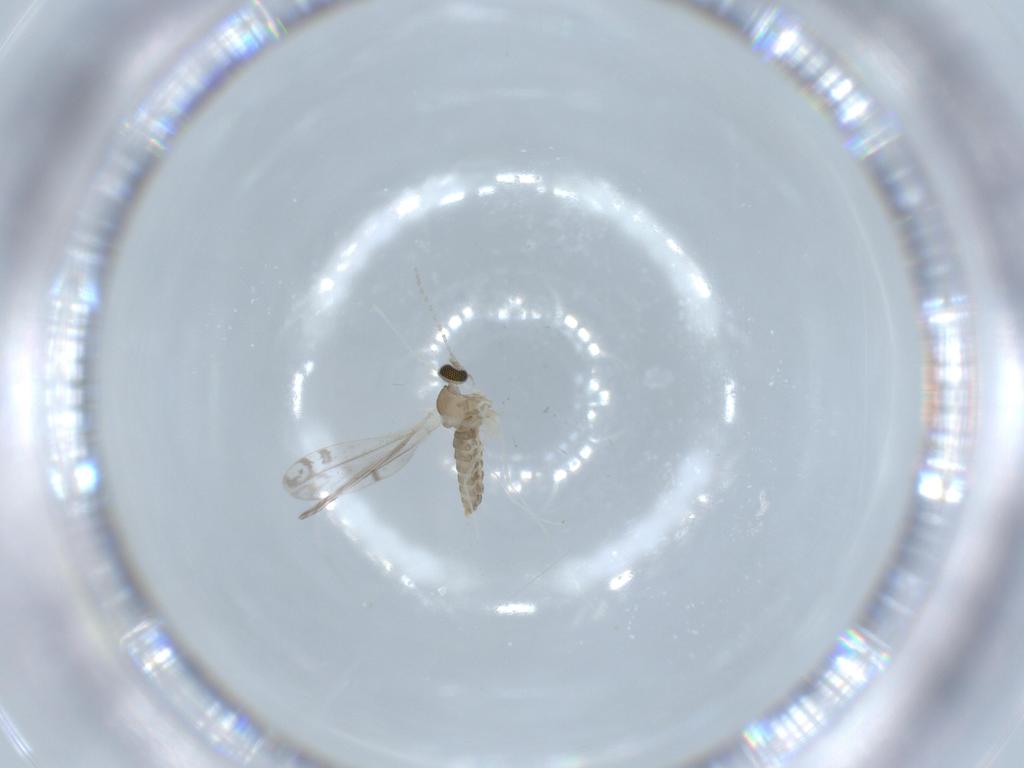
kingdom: Animalia
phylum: Arthropoda
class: Insecta
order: Diptera
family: Cecidomyiidae
